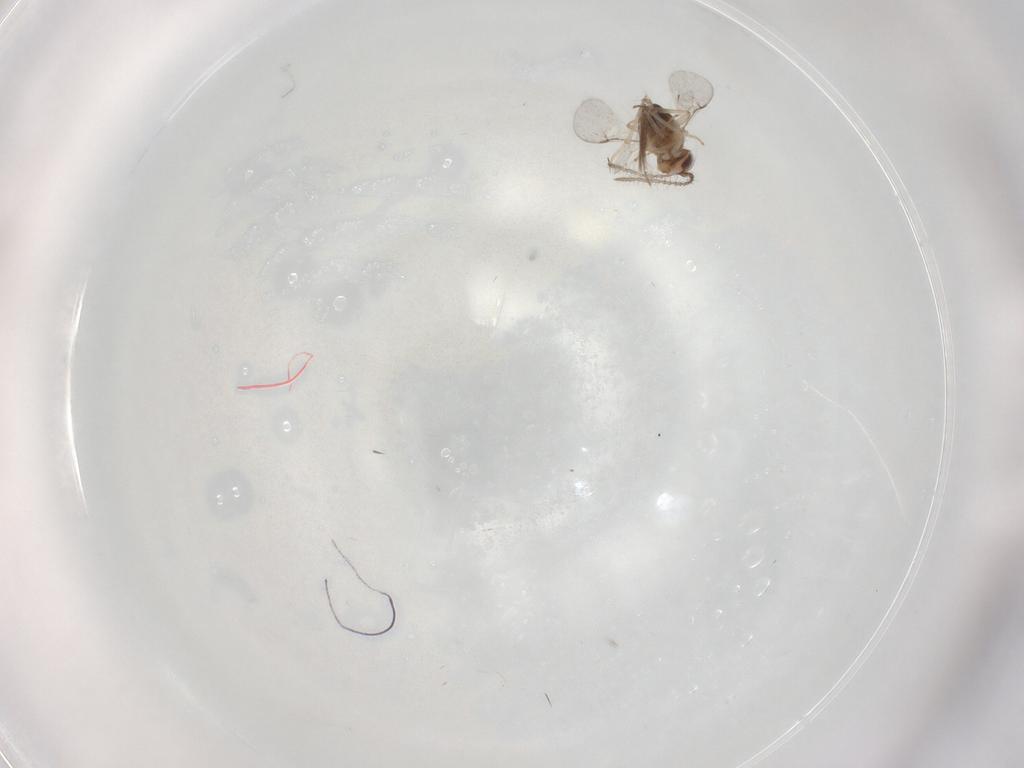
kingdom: Animalia
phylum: Arthropoda
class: Insecta
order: Hymenoptera
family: Encyrtidae
